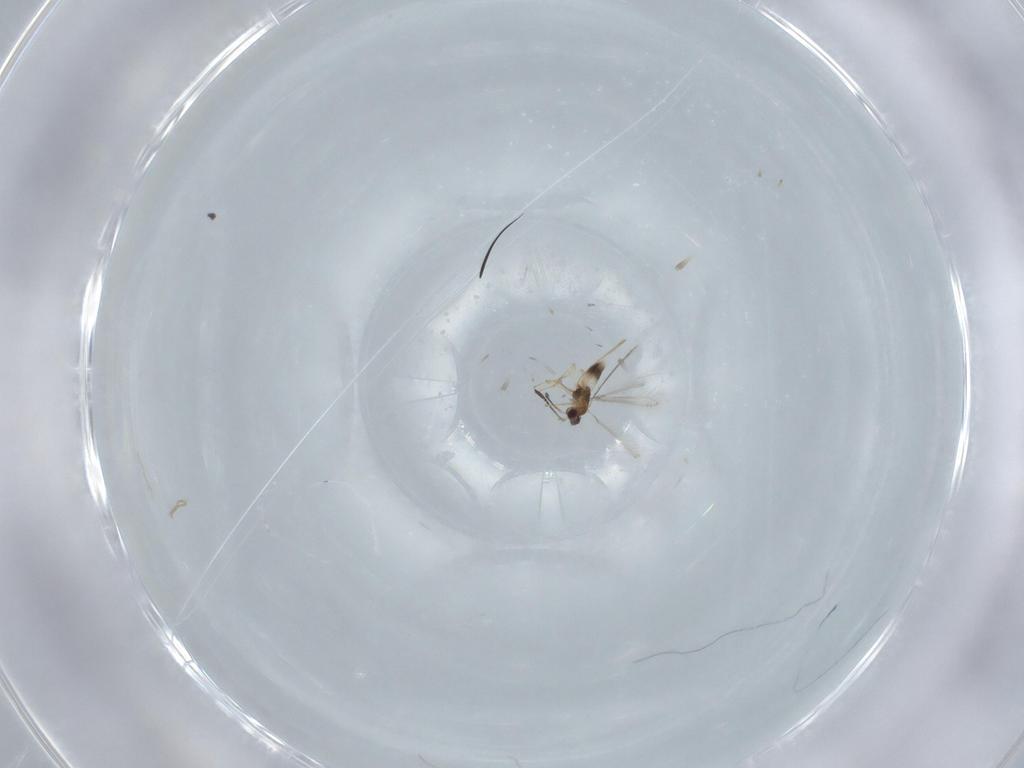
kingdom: Animalia
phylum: Arthropoda
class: Insecta
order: Hymenoptera
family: Mymaridae
